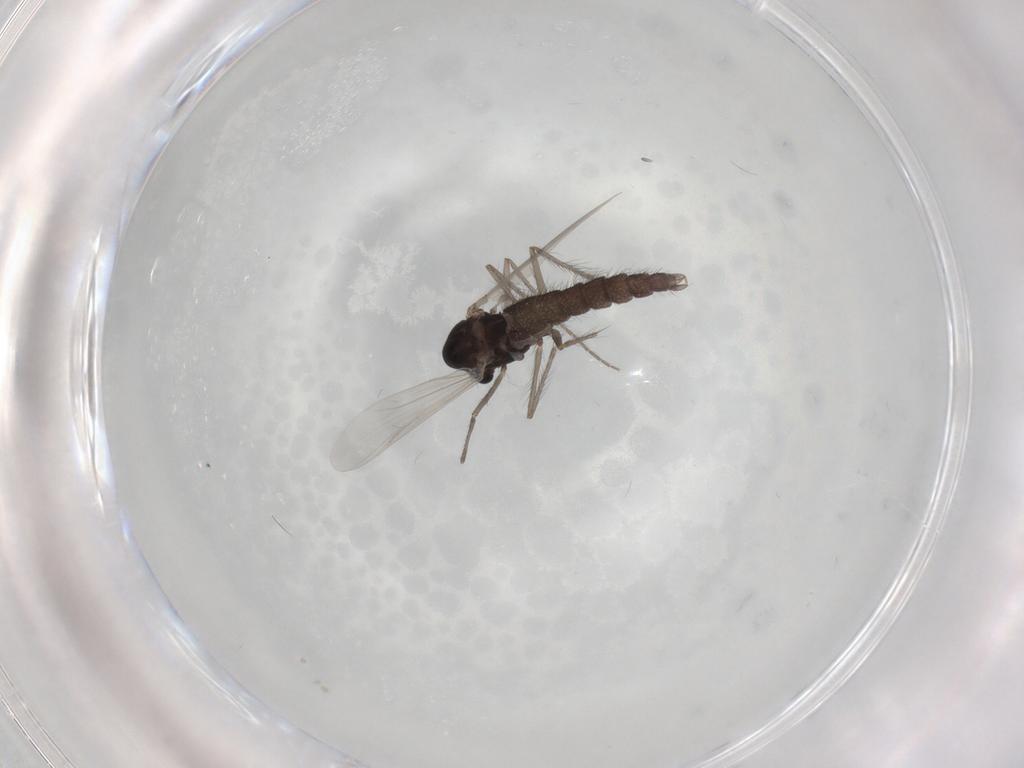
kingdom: Animalia
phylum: Arthropoda
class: Insecta
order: Diptera
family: Chironomidae
